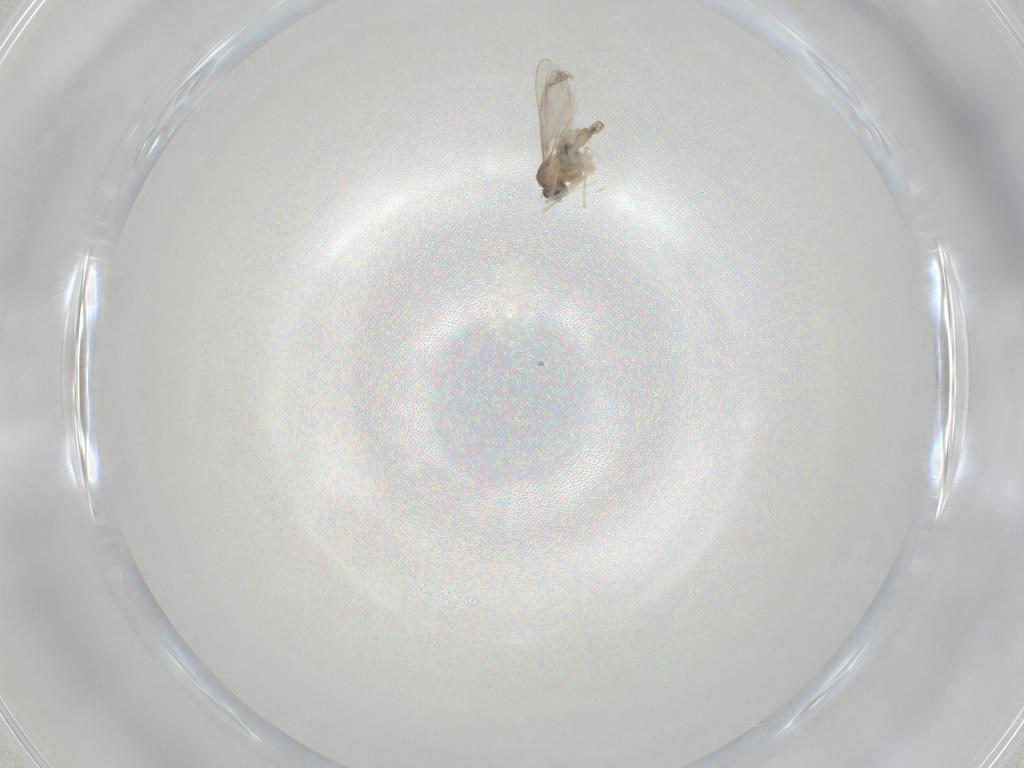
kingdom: Animalia
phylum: Arthropoda
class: Insecta
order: Diptera
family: Cecidomyiidae
